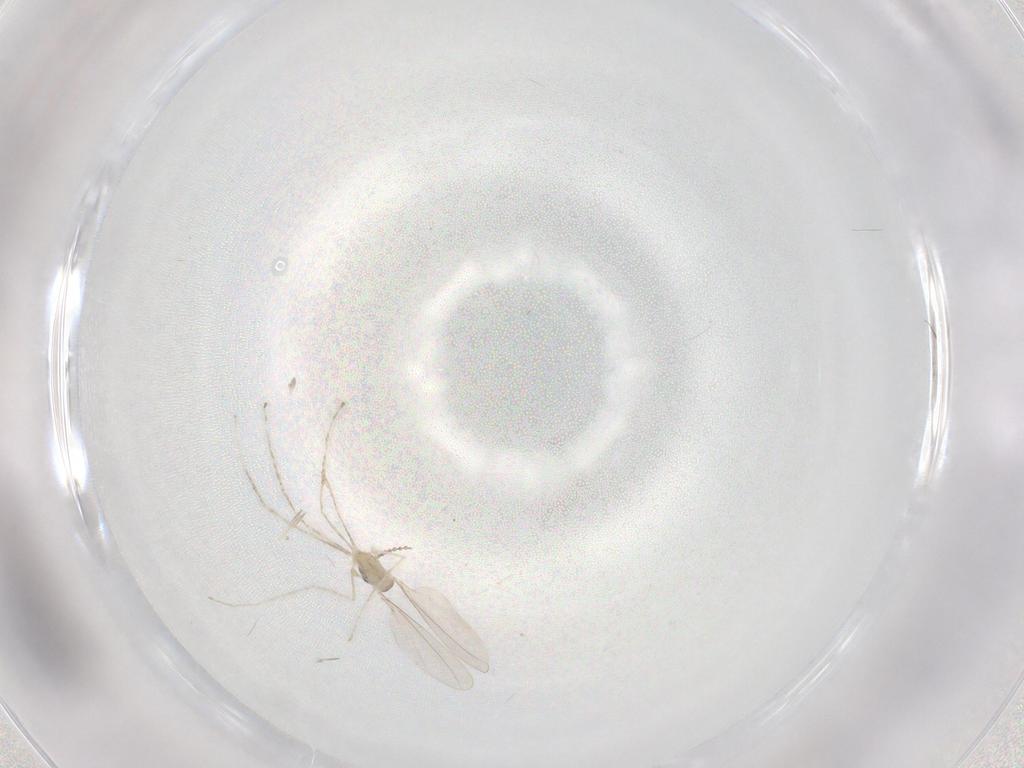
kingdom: Animalia
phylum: Arthropoda
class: Insecta
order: Diptera
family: Cecidomyiidae
